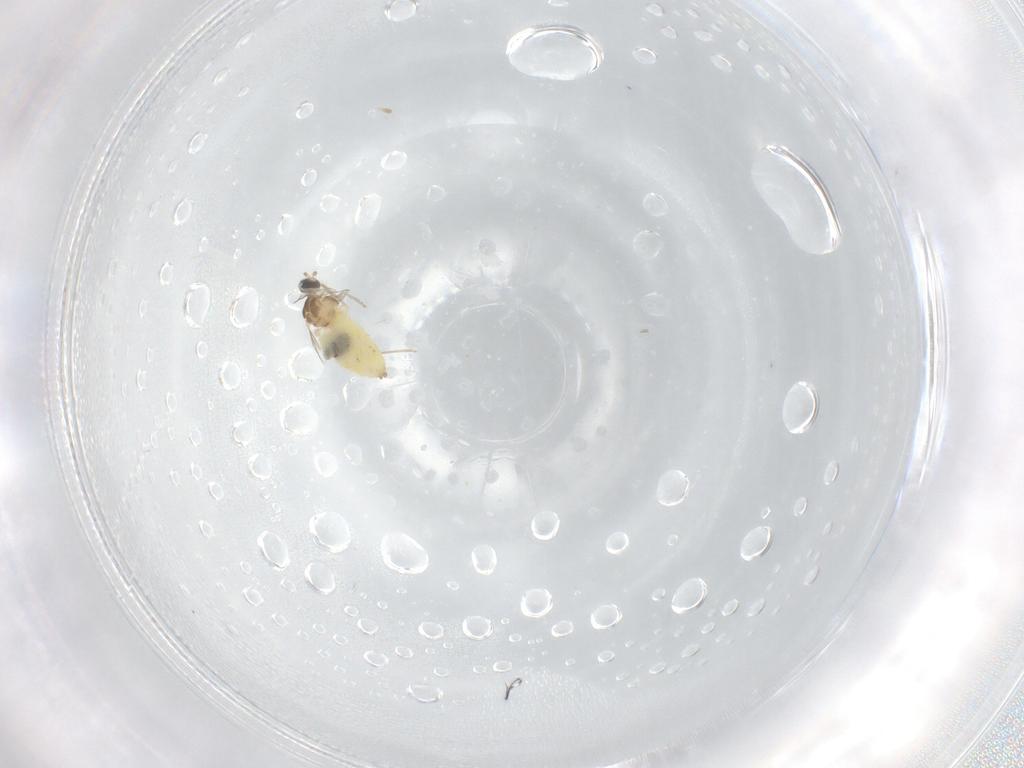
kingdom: Animalia
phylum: Arthropoda
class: Insecta
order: Diptera
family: Cecidomyiidae
